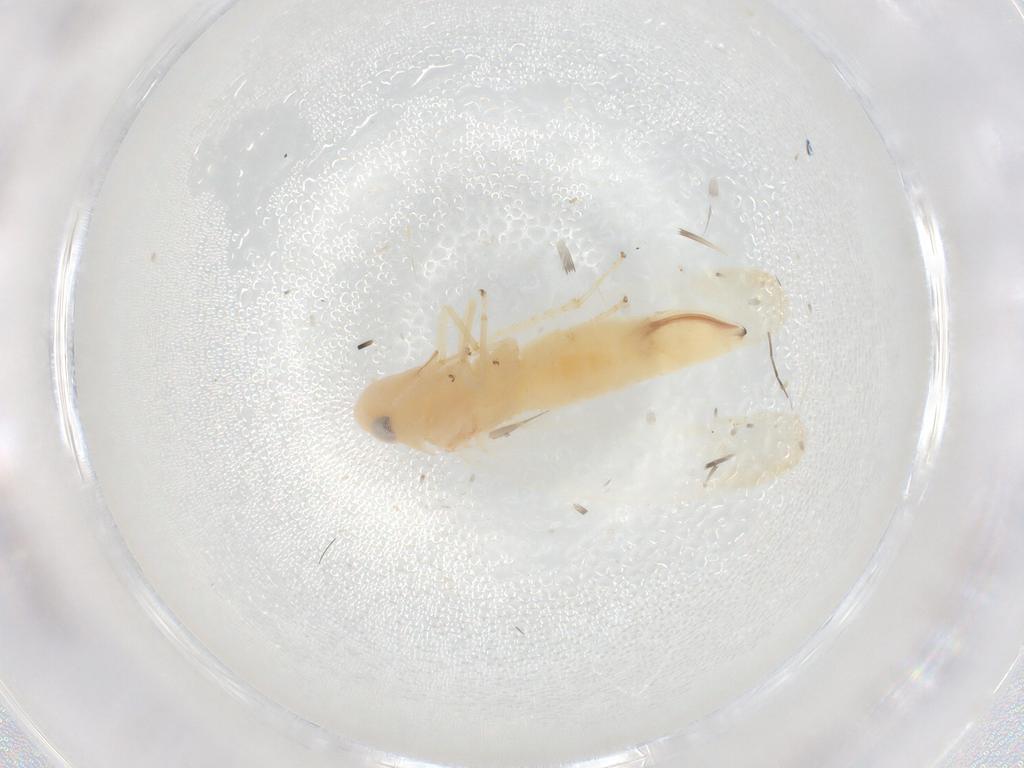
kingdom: Animalia
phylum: Arthropoda
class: Insecta
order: Hemiptera
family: Cicadellidae
